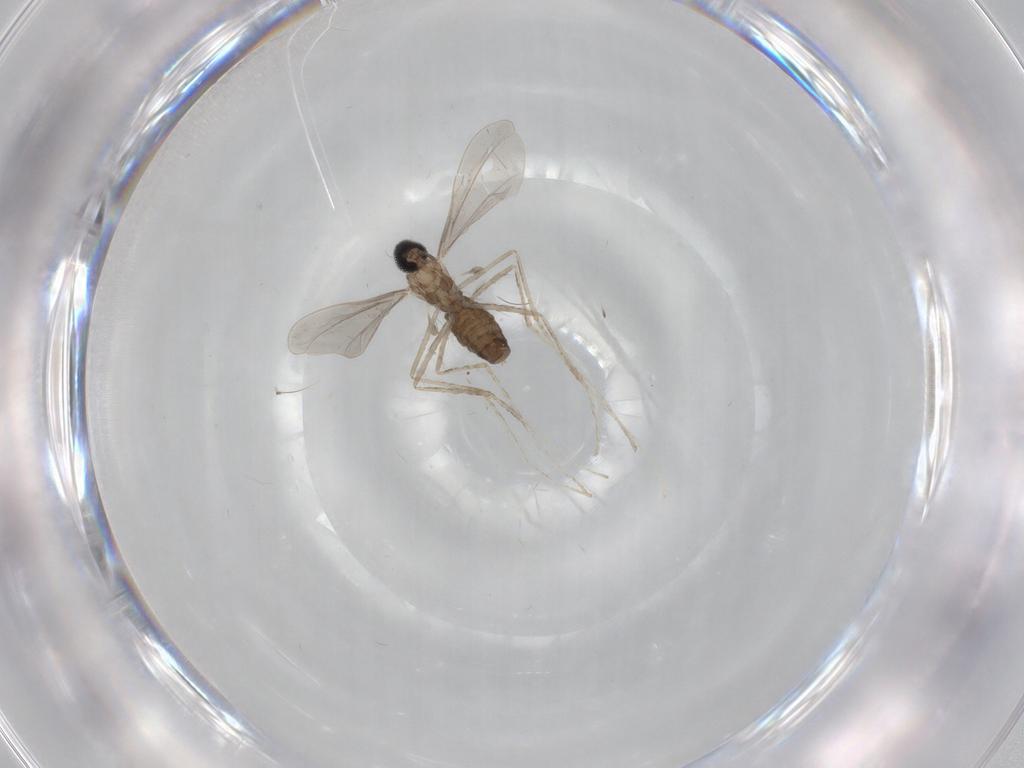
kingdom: Animalia
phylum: Arthropoda
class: Insecta
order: Diptera
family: Cecidomyiidae
